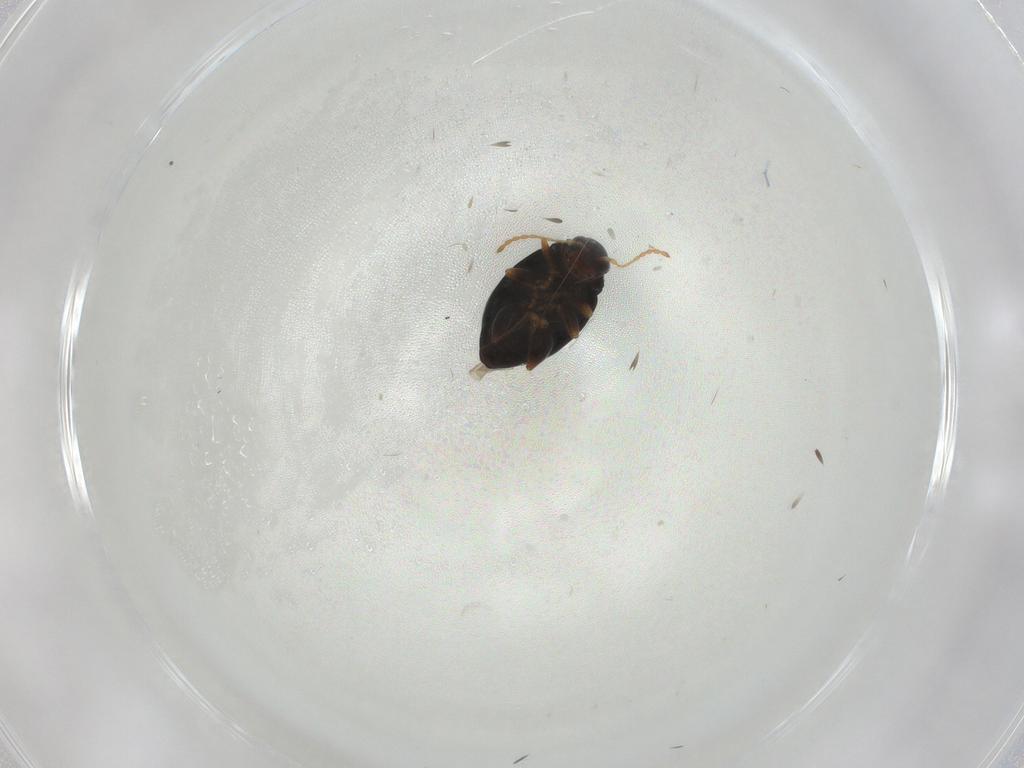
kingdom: Animalia
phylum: Arthropoda
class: Insecta
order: Coleoptera
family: Chrysomelidae
